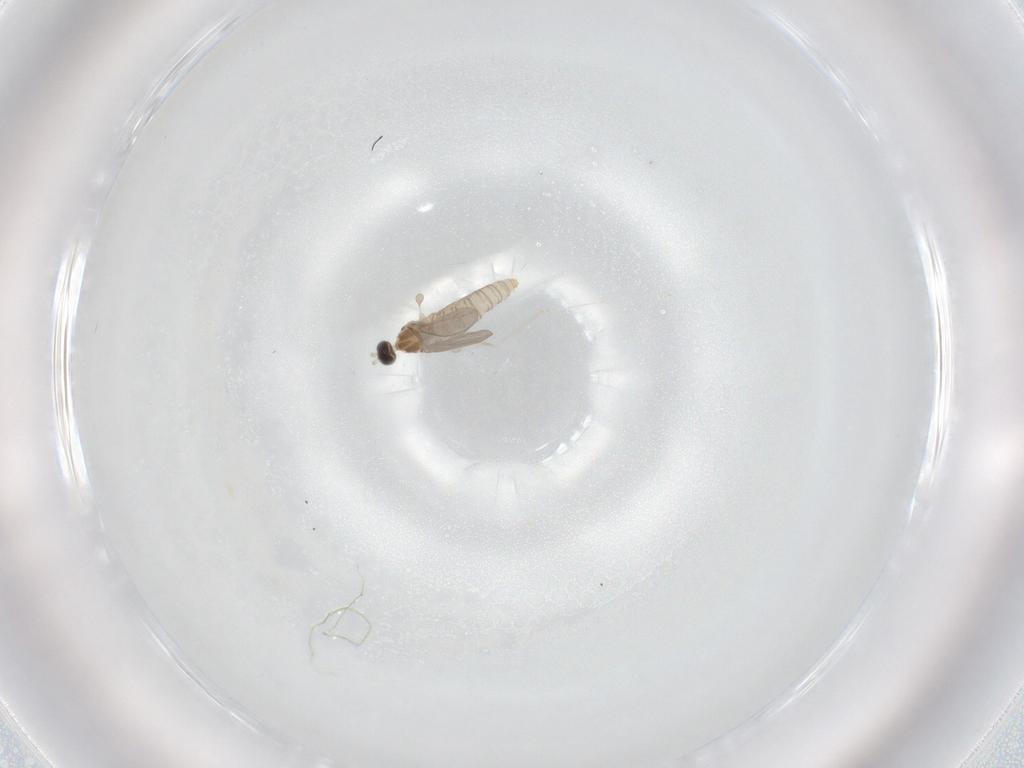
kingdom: Animalia
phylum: Arthropoda
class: Insecta
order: Diptera
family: Cecidomyiidae
